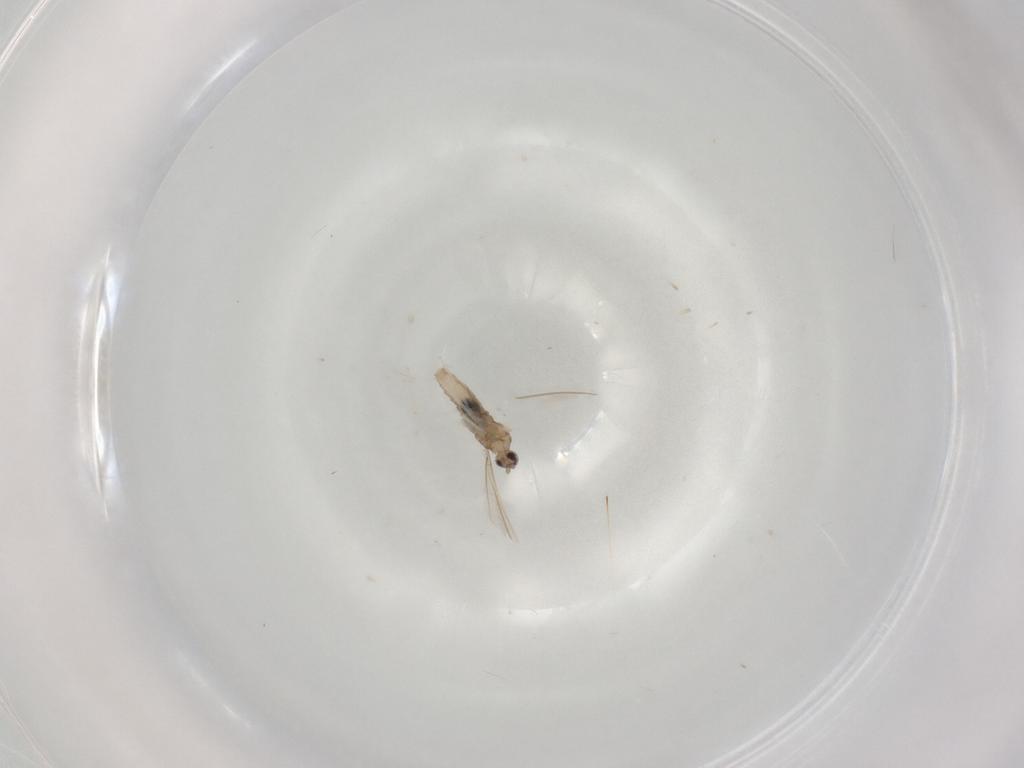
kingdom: Animalia
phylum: Arthropoda
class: Insecta
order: Diptera
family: Cecidomyiidae
